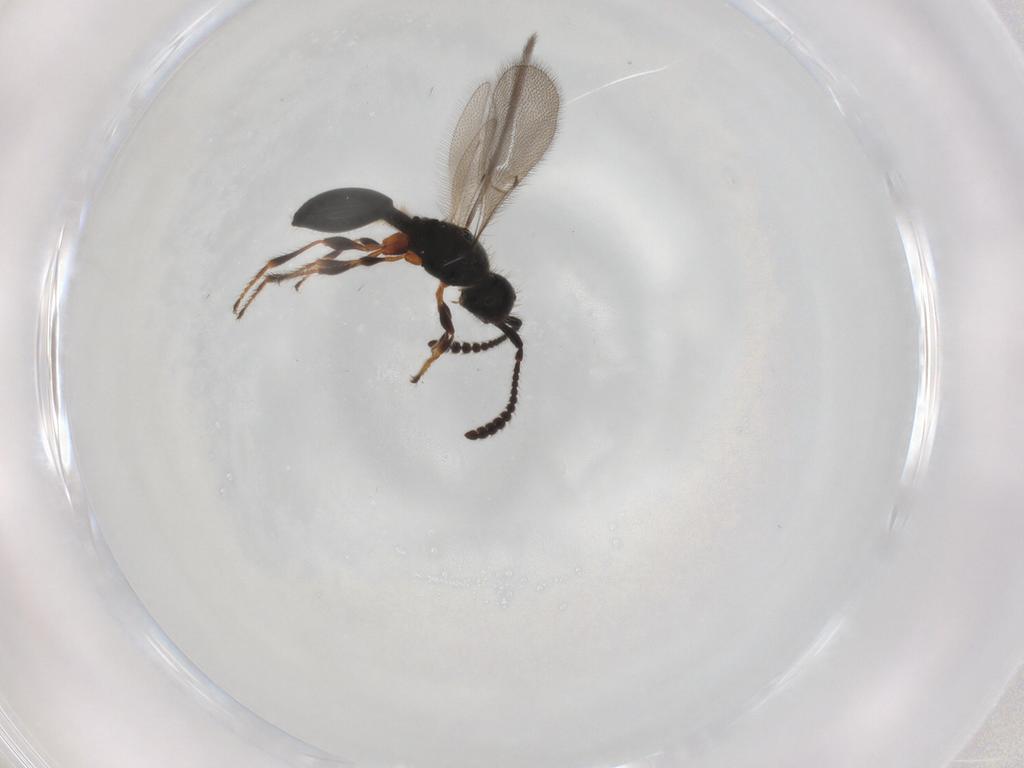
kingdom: Animalia
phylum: Arthropoda
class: Insecta
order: Hymenoptera
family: Diapriidae
